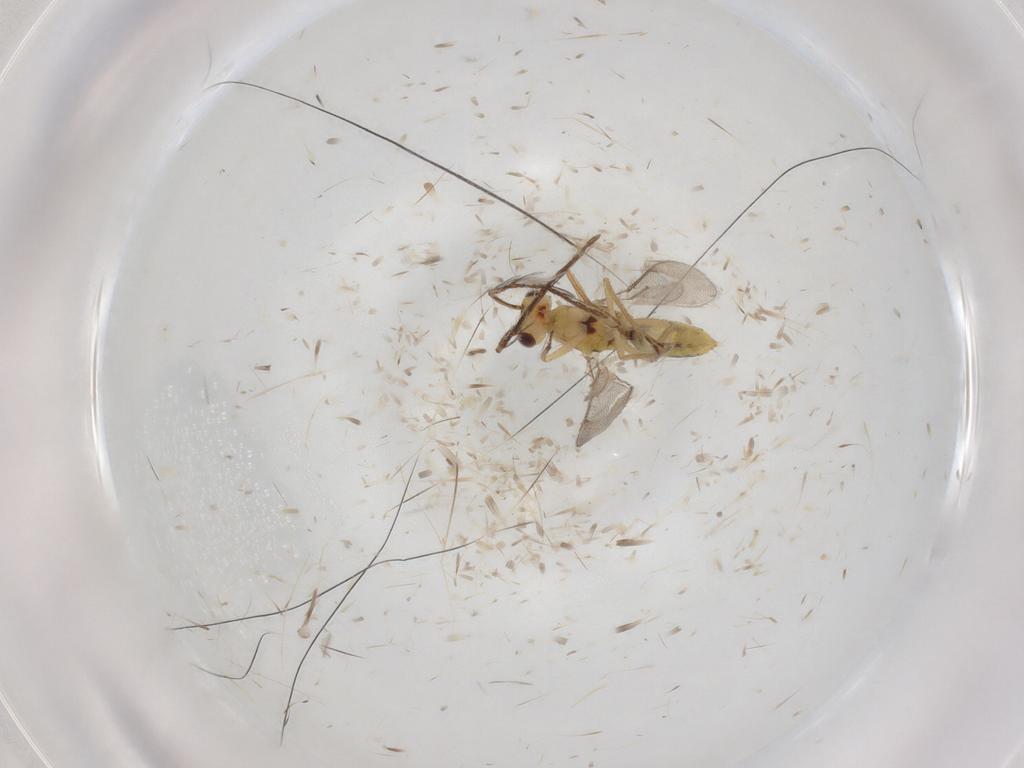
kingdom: Animalia
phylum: Arthropoda
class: Insecta
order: Hymenoptera
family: Eulophidae
